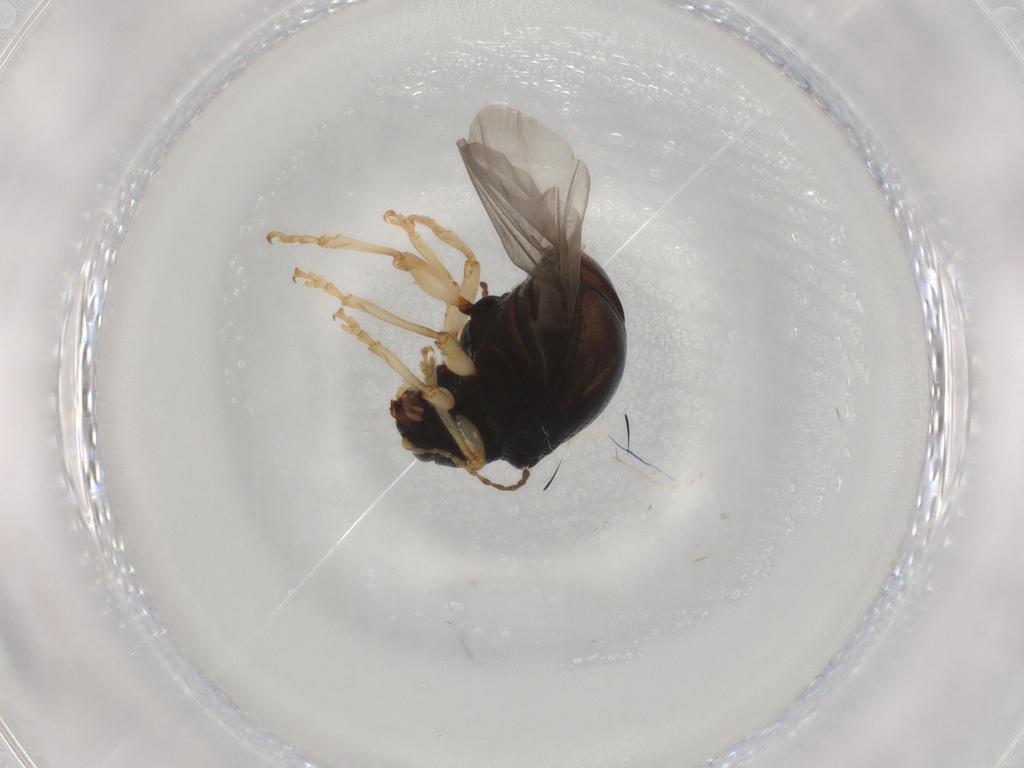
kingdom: Animalia
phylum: Arthropoda
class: Insecta
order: Coleoptera
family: Chrysomelidae
